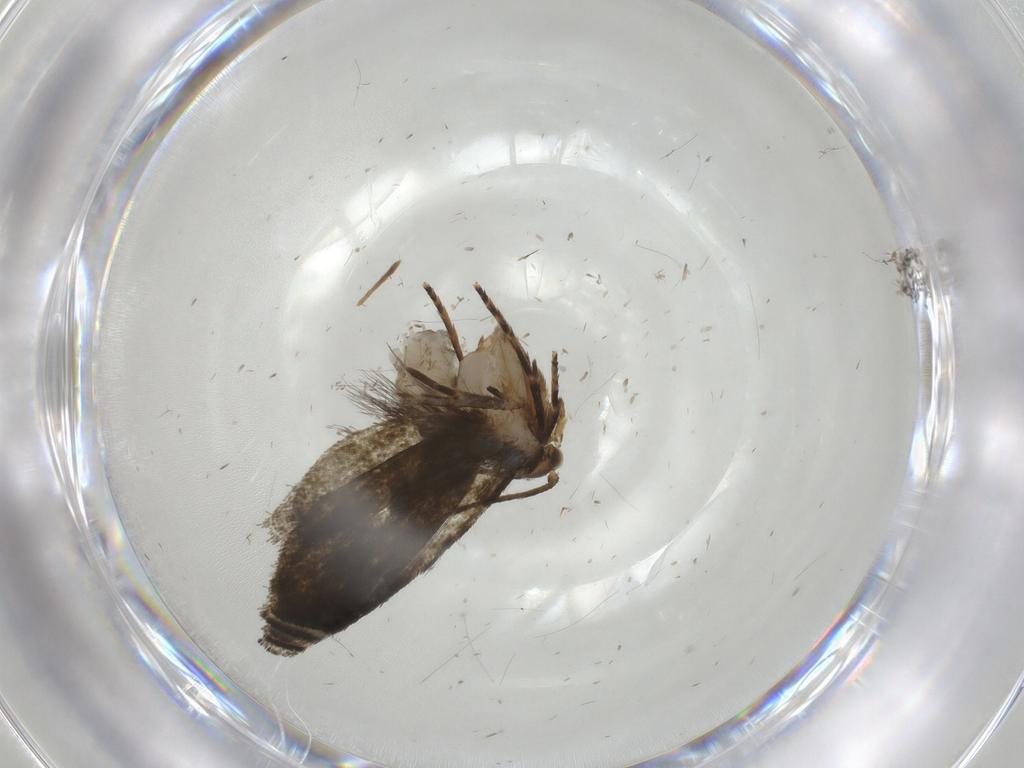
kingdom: Animalia
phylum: Arthropoda
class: Insecta
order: Lepidoptera
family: Tineidae
